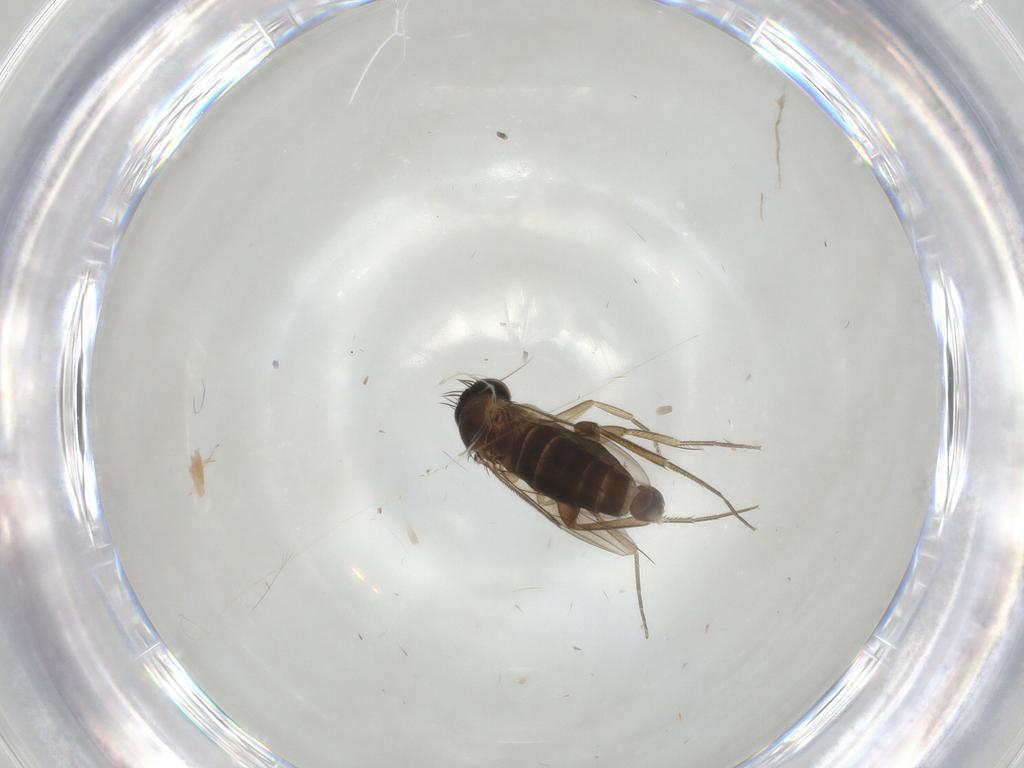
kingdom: Animalia
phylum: Arthropoda
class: Insecta
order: Diptera
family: Phoridae
